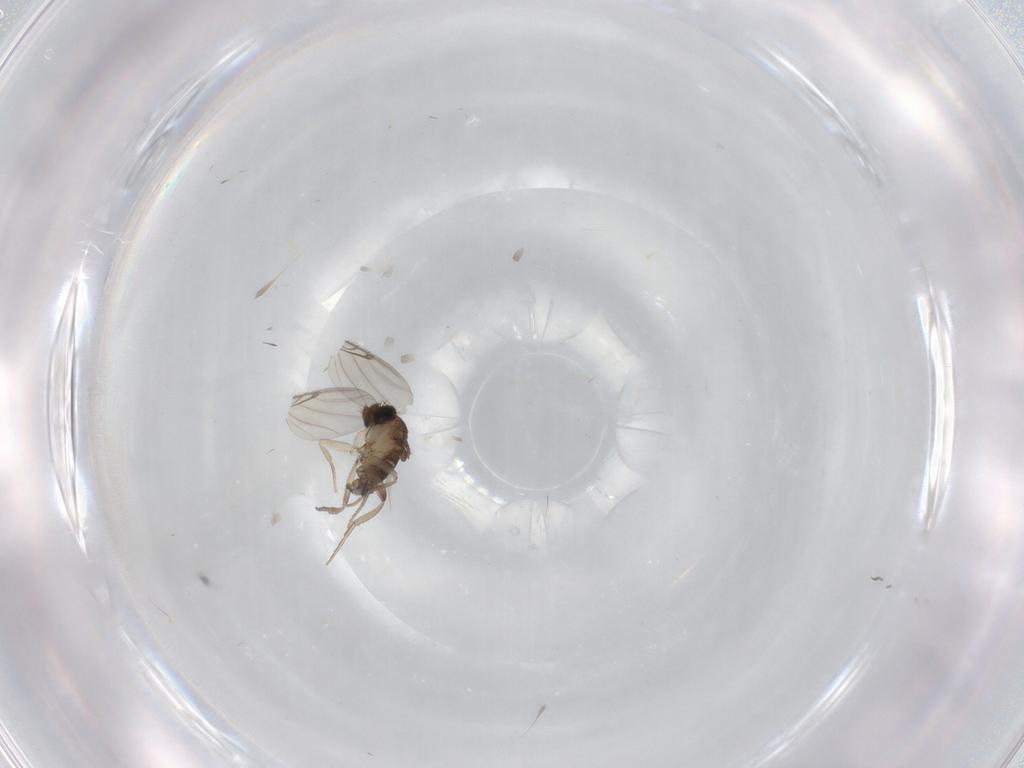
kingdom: Animalia
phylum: Arthropoda
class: Insecta
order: Diptera
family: Phoridae
